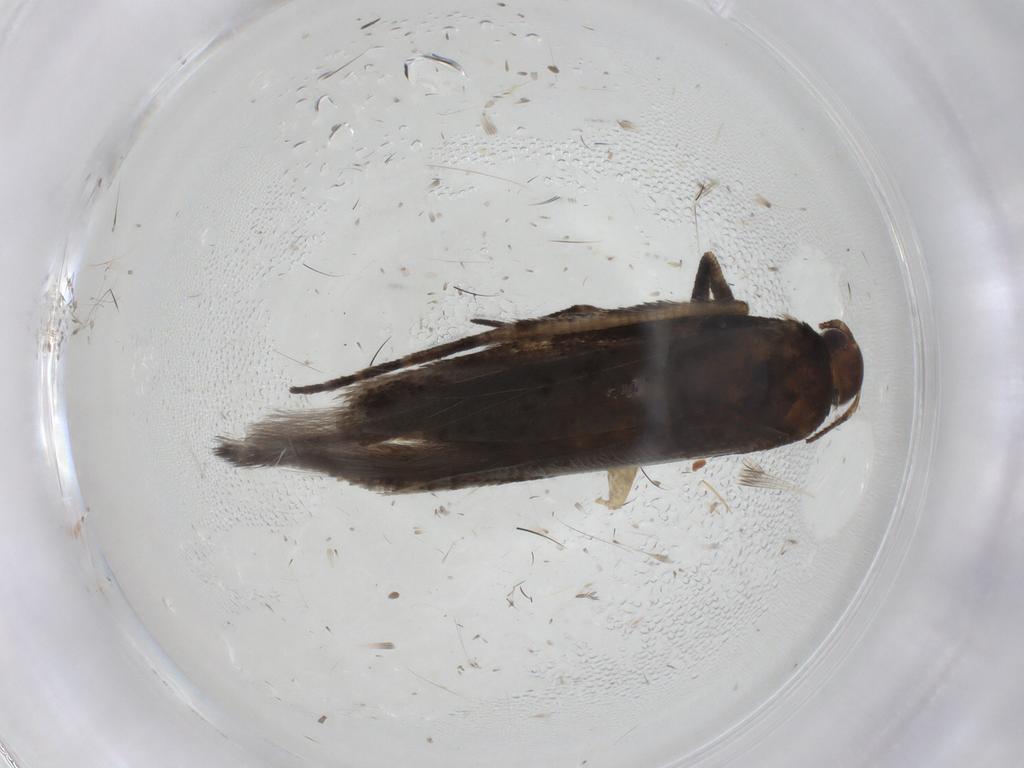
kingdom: Animalia
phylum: Arthropoda
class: Insecta
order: Lepidoptera
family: Gelechiidae
